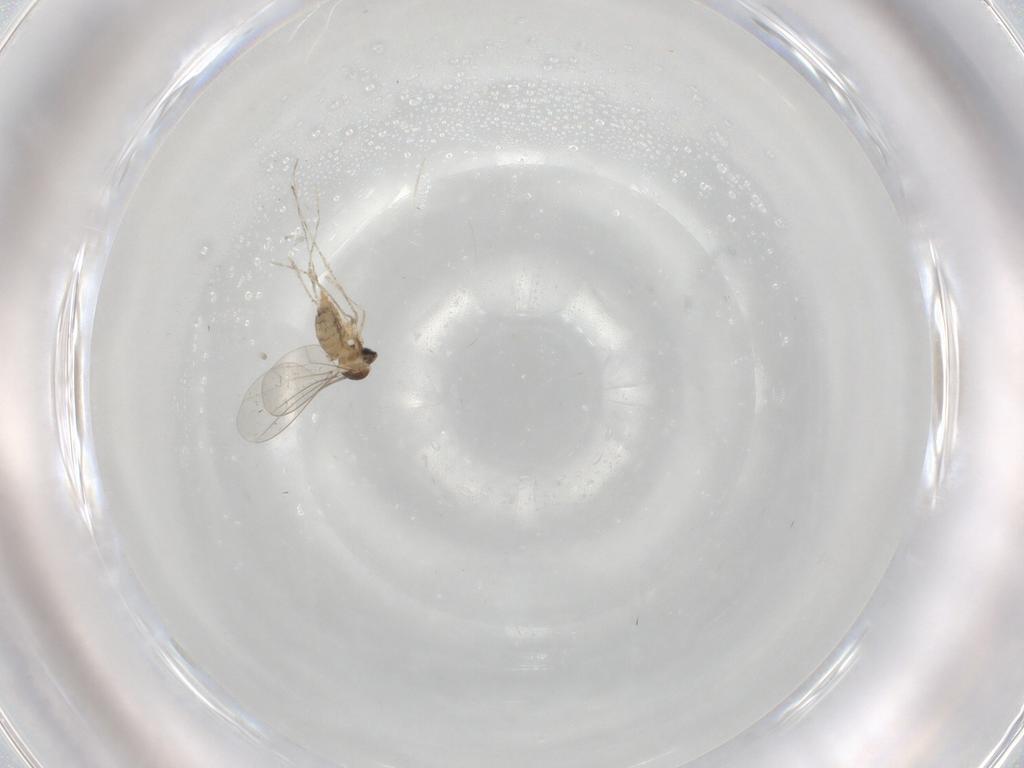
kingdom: Animalia
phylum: Arthropoda
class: Insecta
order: Diptera
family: Cecidomyiidae
